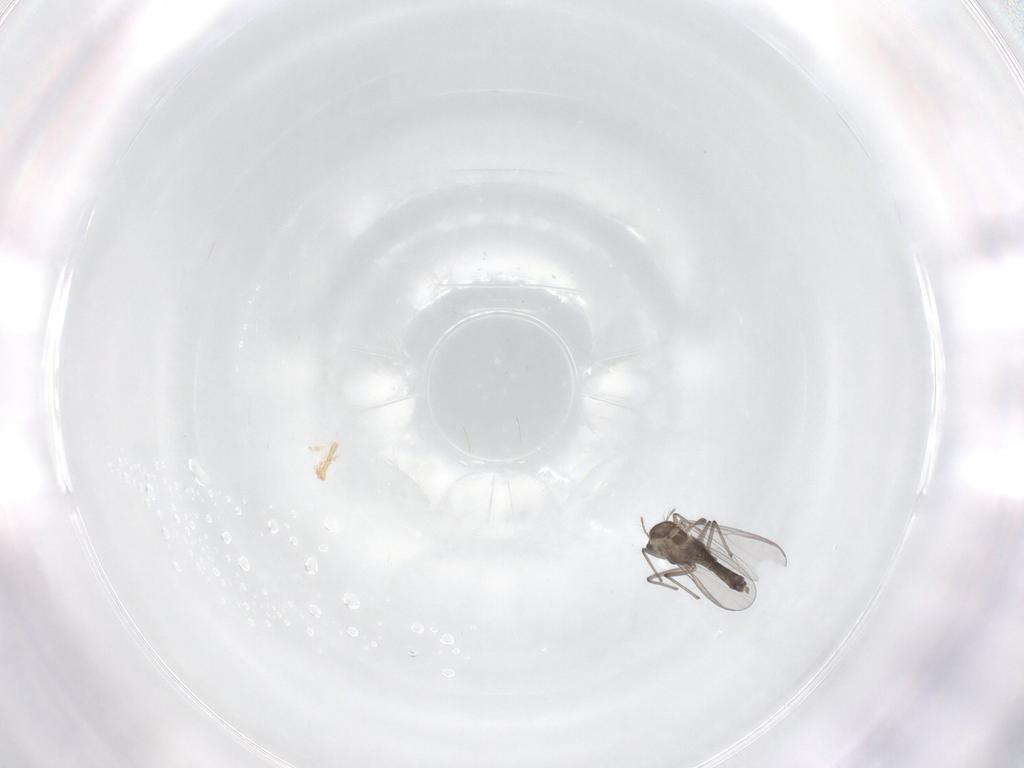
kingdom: Animalia
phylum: Arthropoda
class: Insecta
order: Diptera
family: Chironomidae
